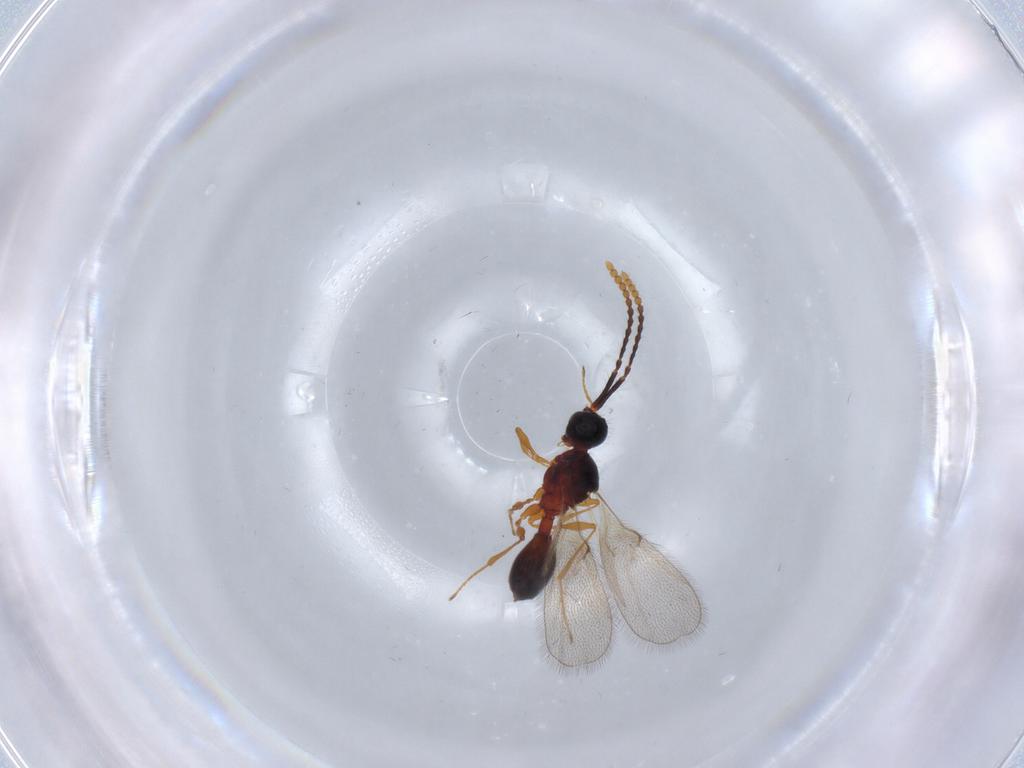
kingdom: Animalia
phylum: Arthropoda
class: Insecta
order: Hymenoptera
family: Diapriidae
